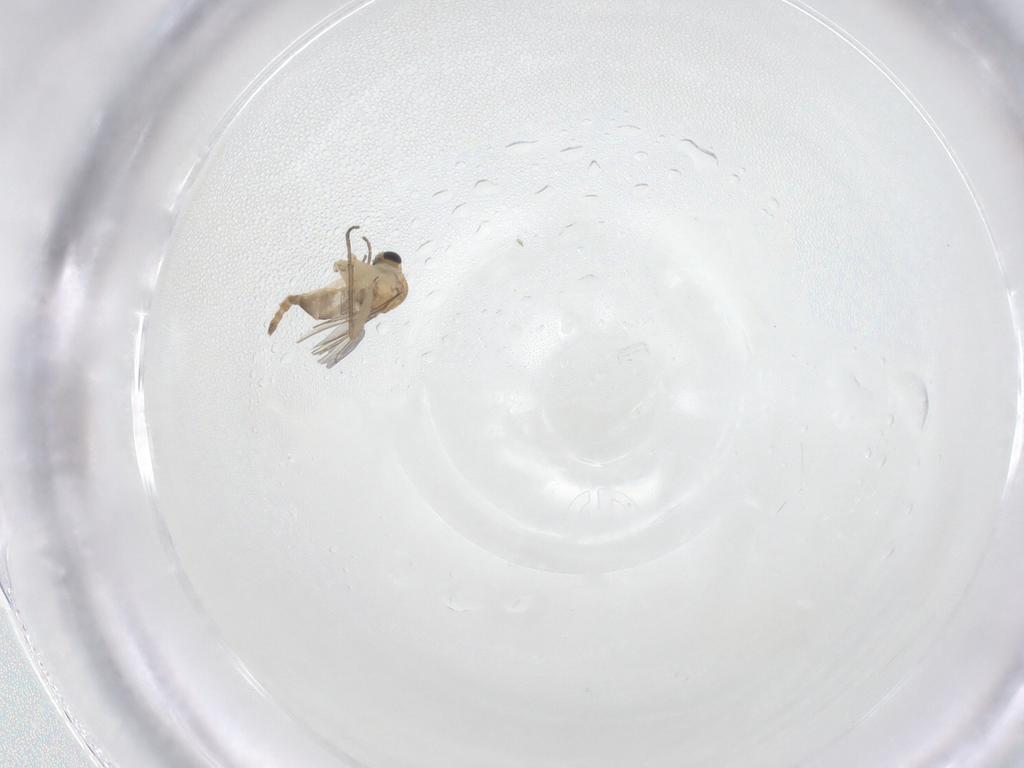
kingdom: Animalia
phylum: Arthropoda
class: Insecta
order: Diptera
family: Sciaridae
